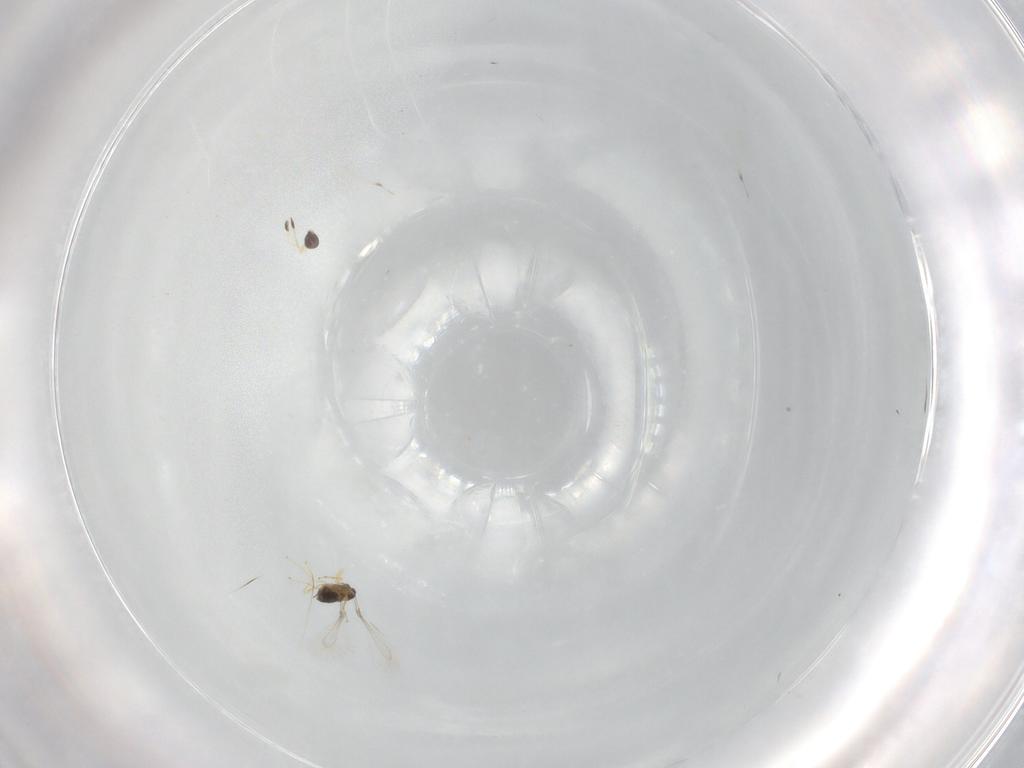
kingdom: Animalia
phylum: Arthropoda
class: Insecta
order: Hymenoptera
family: Mymaridae
